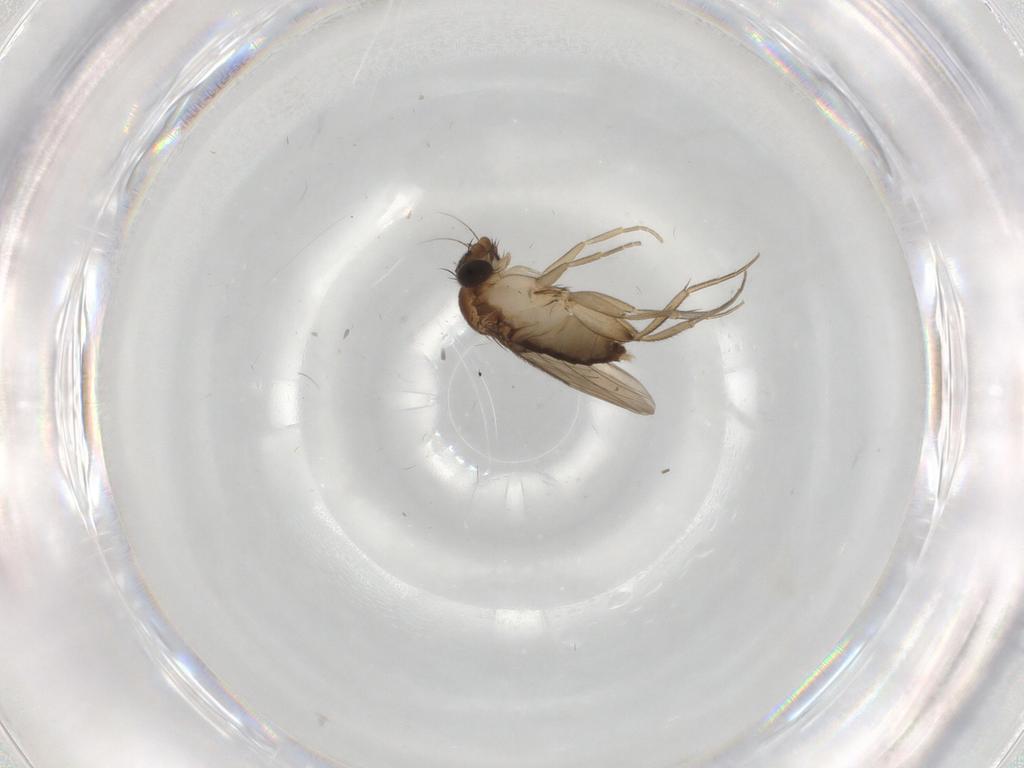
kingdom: Animalia
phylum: Arthropoda
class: Insecta
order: Diptera
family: Phoridae
